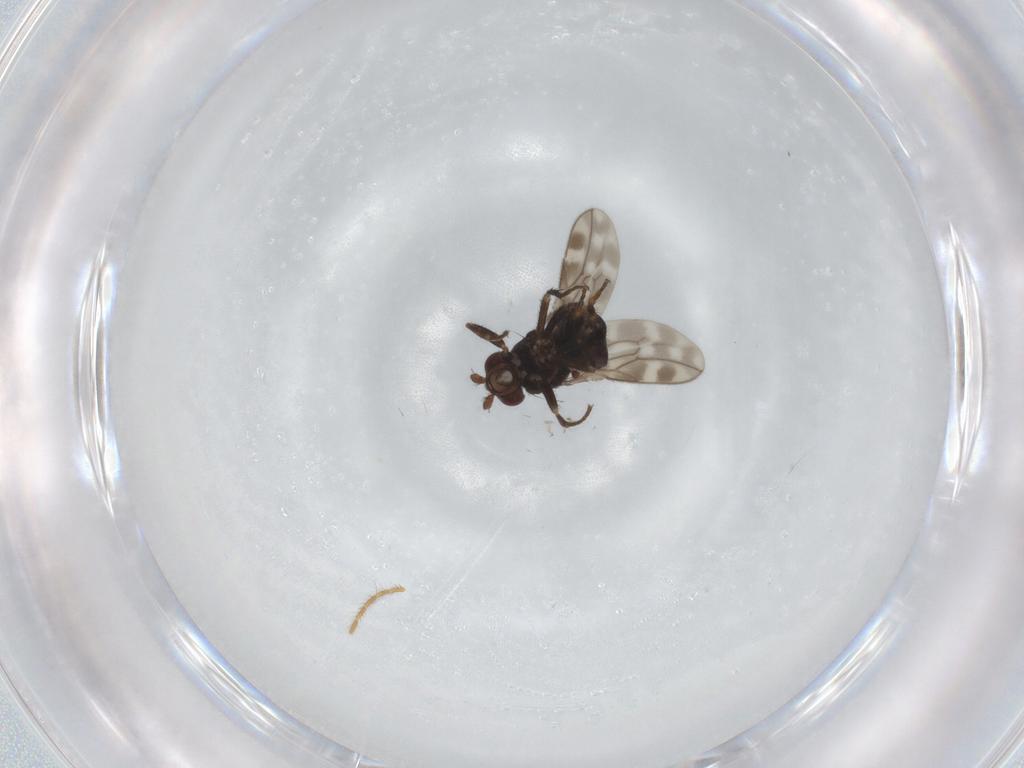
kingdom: Animalia
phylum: Arthropoda
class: Insecta
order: Diptera
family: Sphaeroceridae
